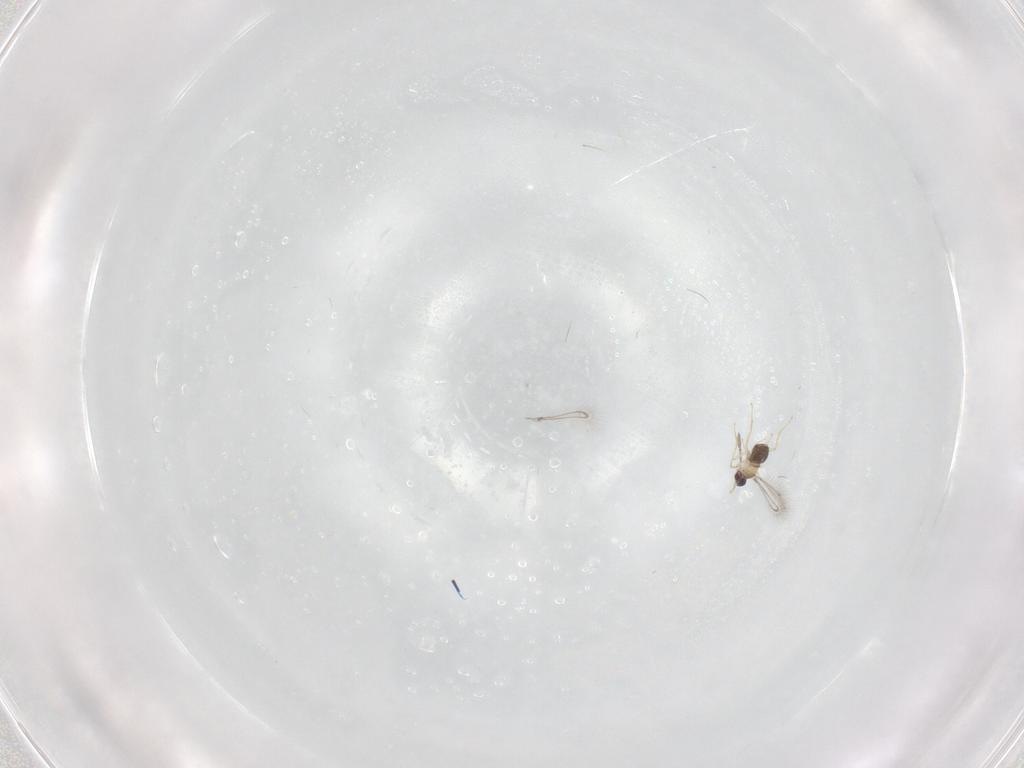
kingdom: Animalia
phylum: Arthropoda
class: Insecta
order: Hymenoptera
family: Mymaridae
